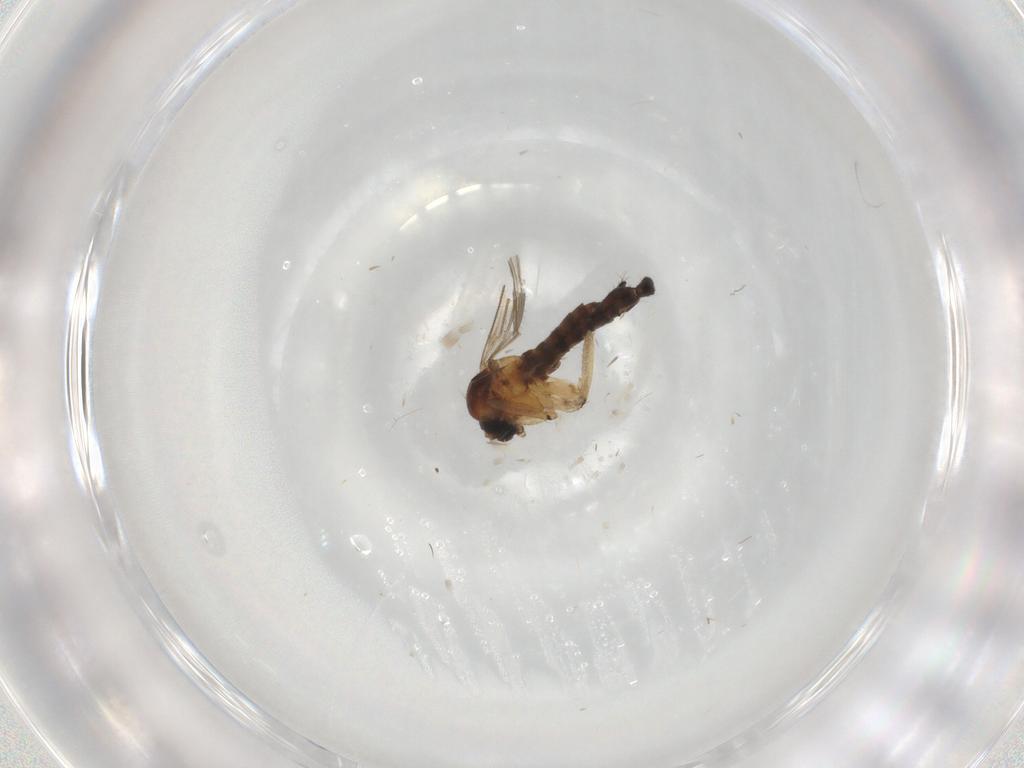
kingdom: Animalia
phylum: Arthropoda
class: Insecta
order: Diptera
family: Sciaridae
